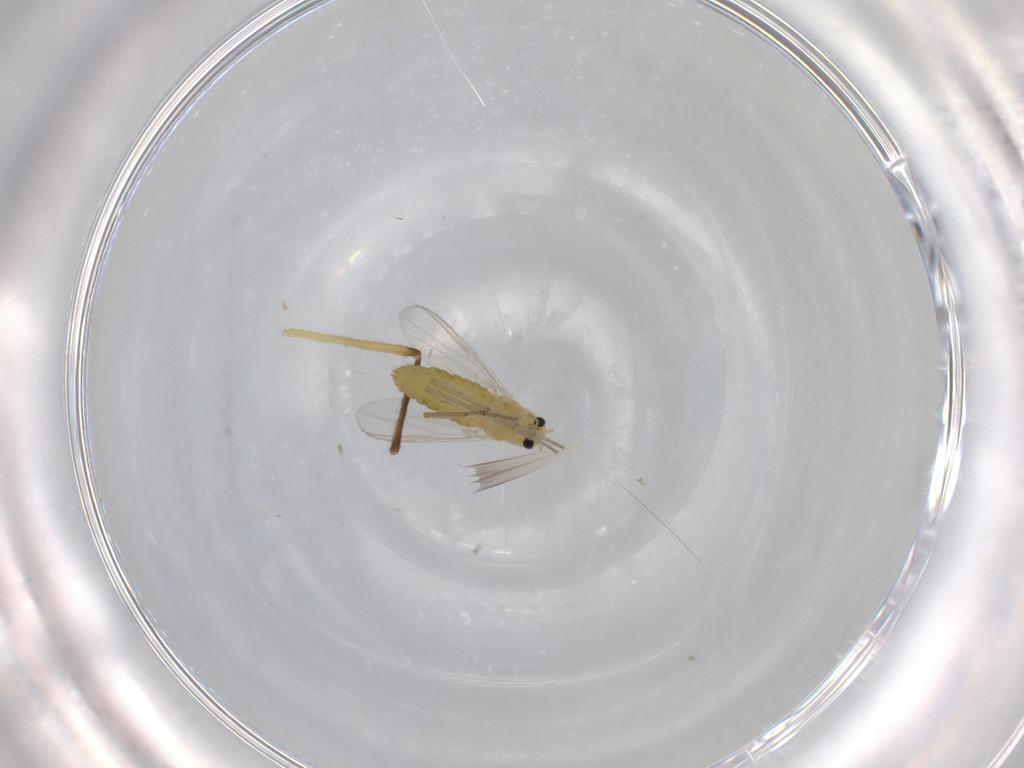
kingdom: Animalia
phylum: Arthropoda
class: Insecta
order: Diptera
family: Chironomidae
